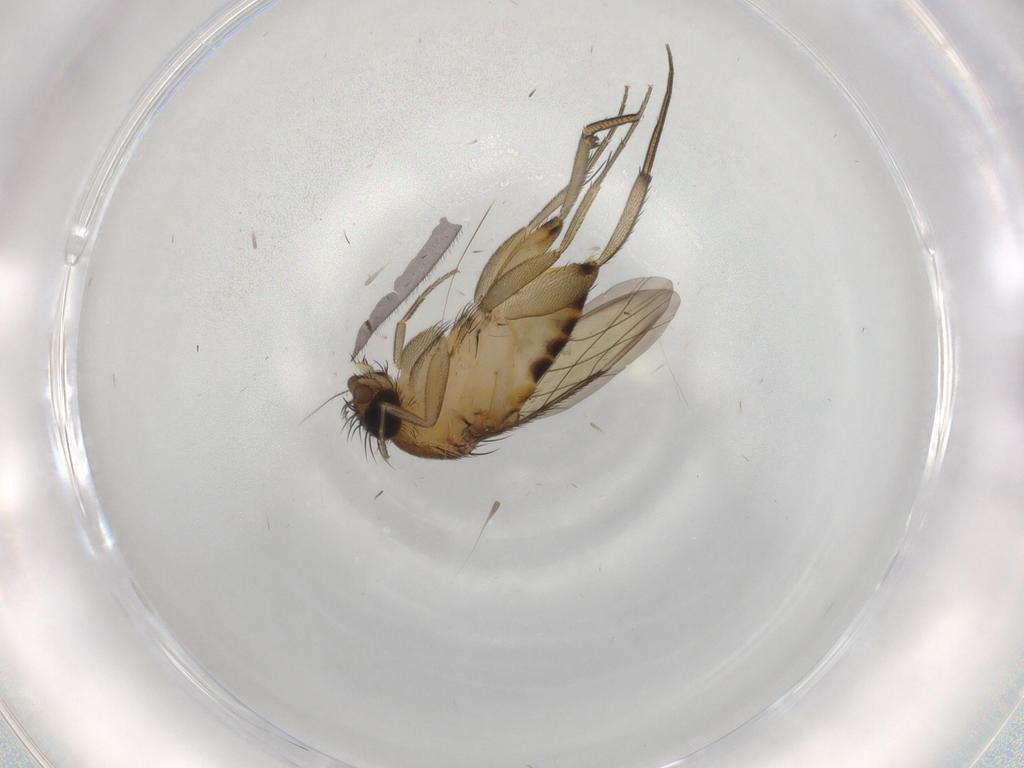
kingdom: Animalia
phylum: Arthropoda
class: Insecta
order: Diptera
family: Phoridae
